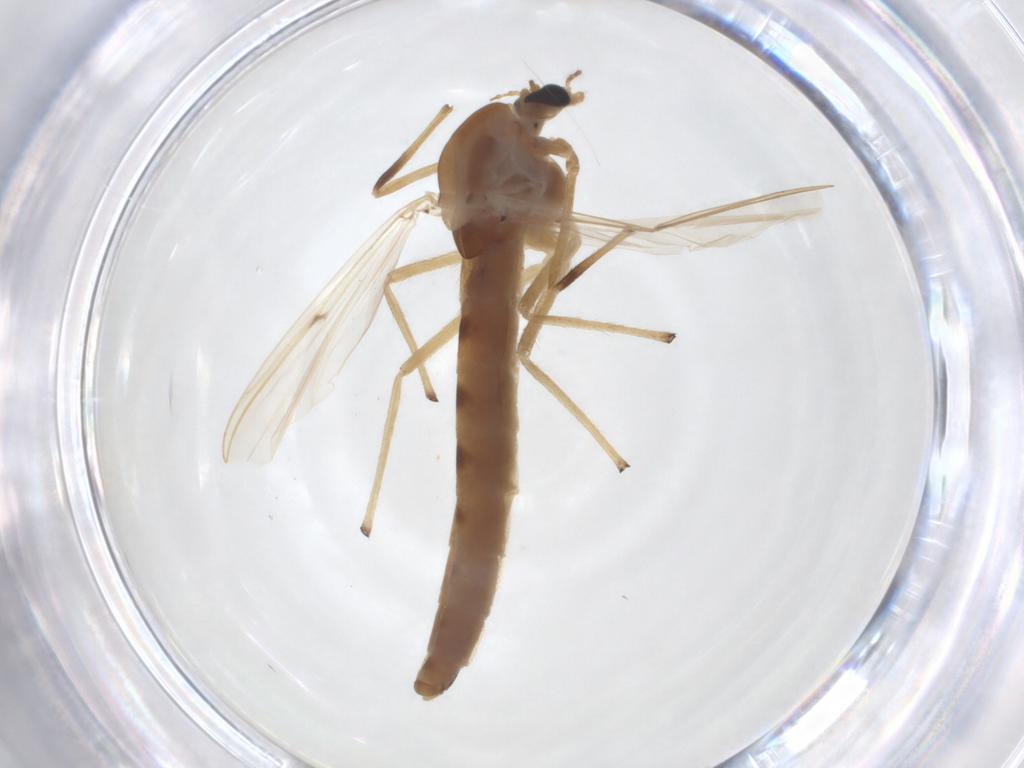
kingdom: Animalia
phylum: Arthropoda
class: Insecta
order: Diptera
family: Chironomidae
